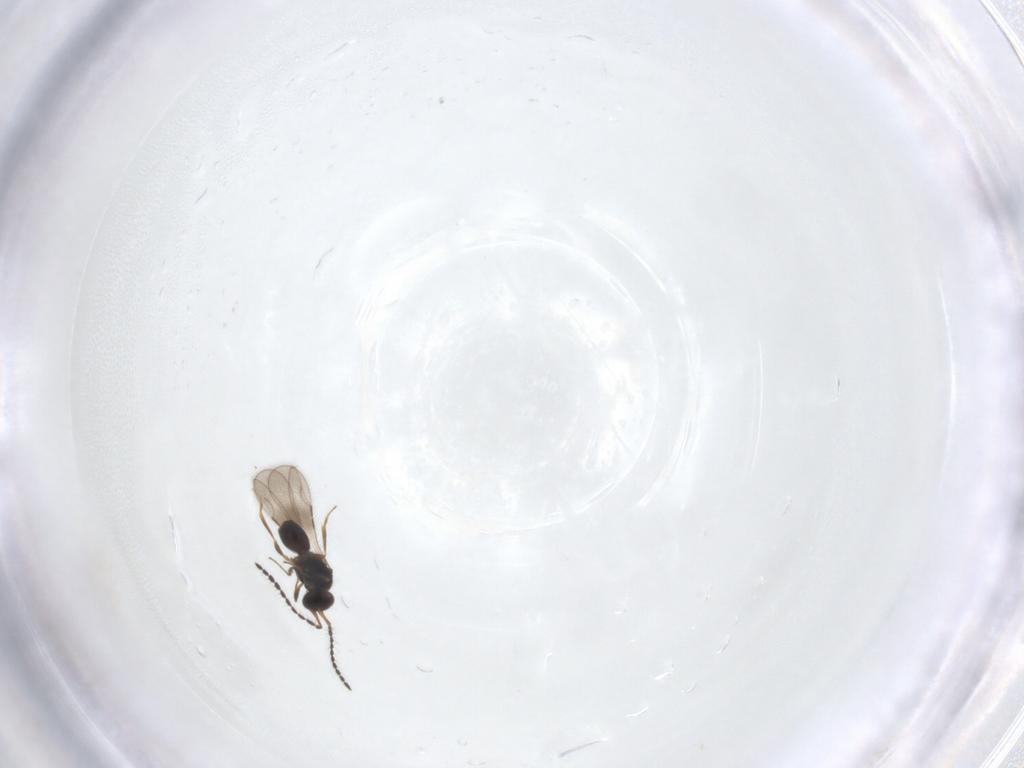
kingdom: Animalia
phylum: Arthropoda
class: Insecta
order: Hymenoptera
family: Ceraphronidae
